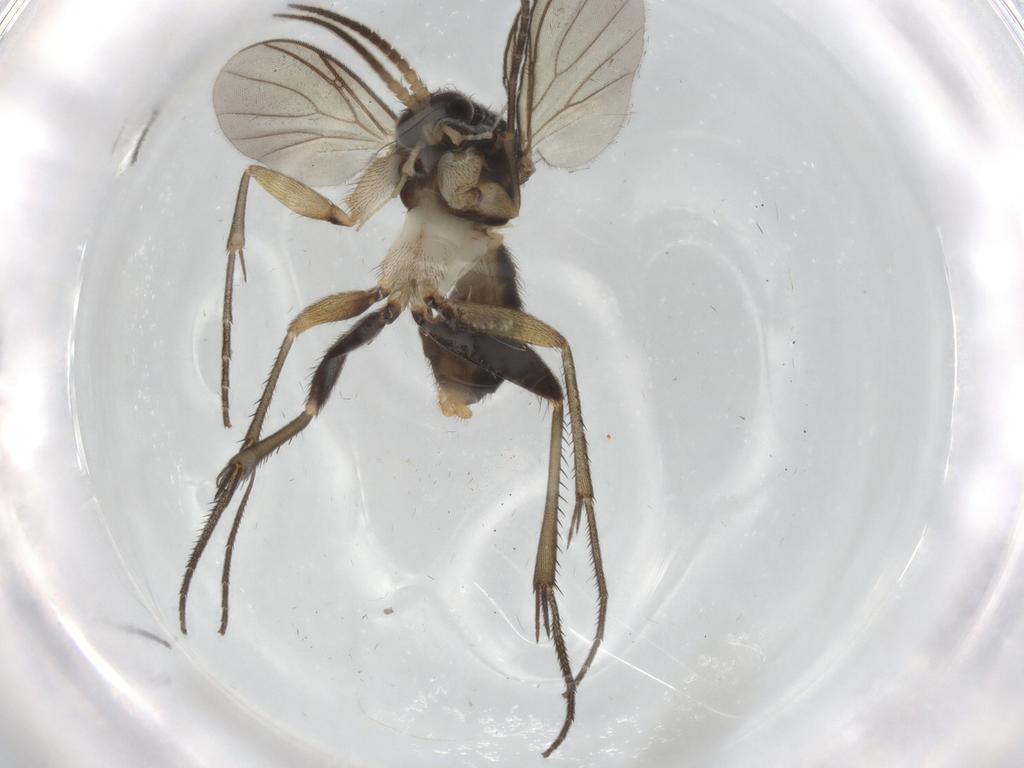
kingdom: Animalia
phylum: Arthropoda
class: Insecta
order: Diptera
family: Mycetophilidae
